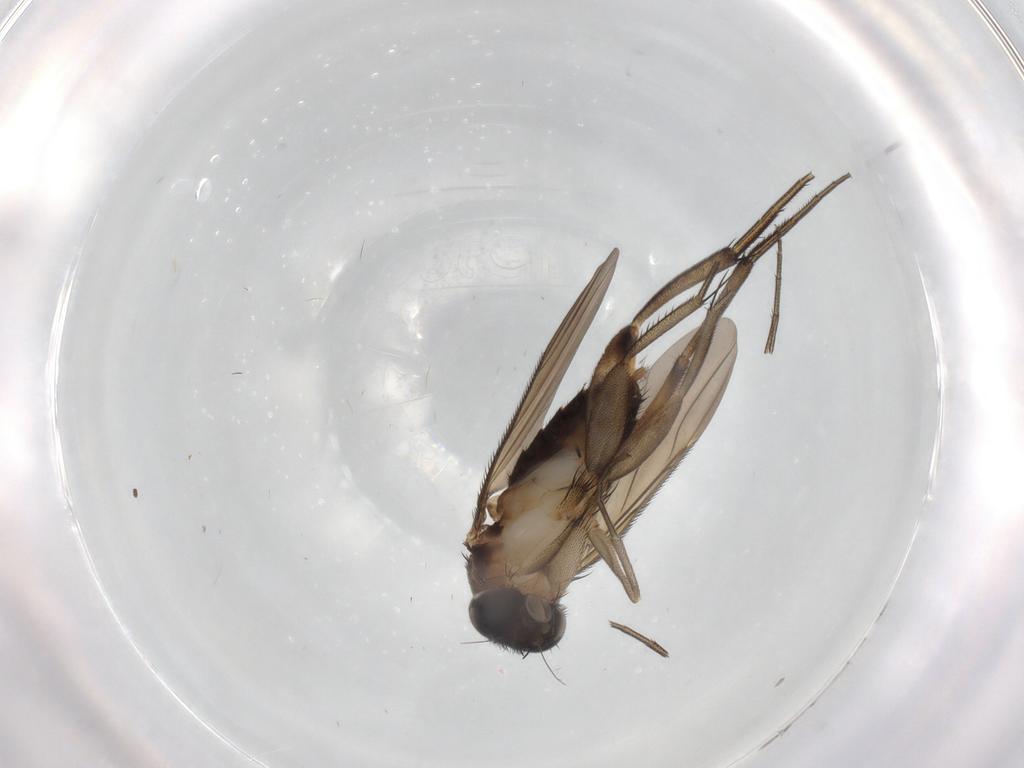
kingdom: Animalia
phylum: Arthropoda
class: Insecta
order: Diptera
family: Phoridae
